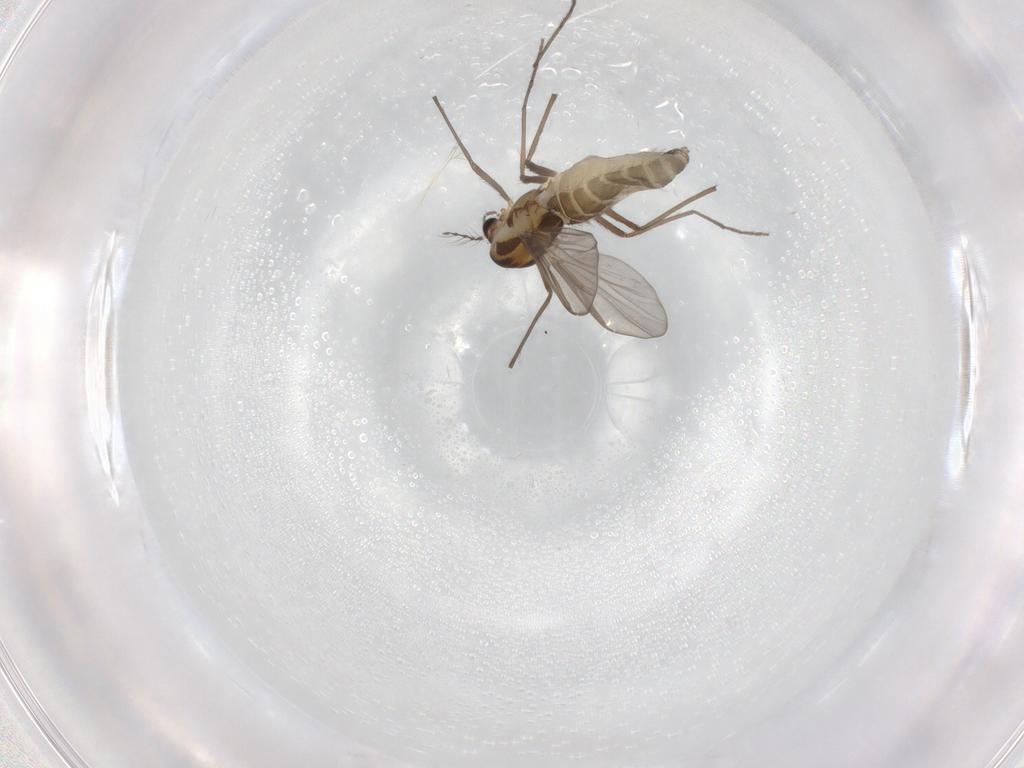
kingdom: Animalia
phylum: Arthropoda
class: Insecta
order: Diptera
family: Chironomidae
